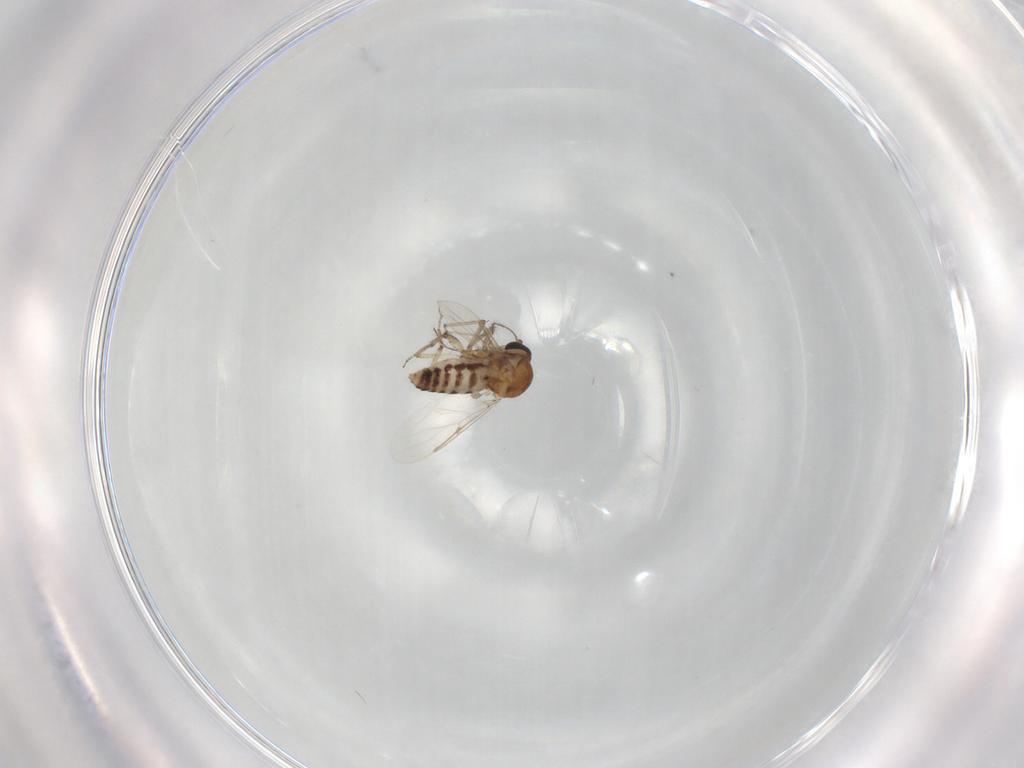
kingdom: Animalia
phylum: Arthropoda
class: Insecta
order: Diptera
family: Ceratopogonidae
